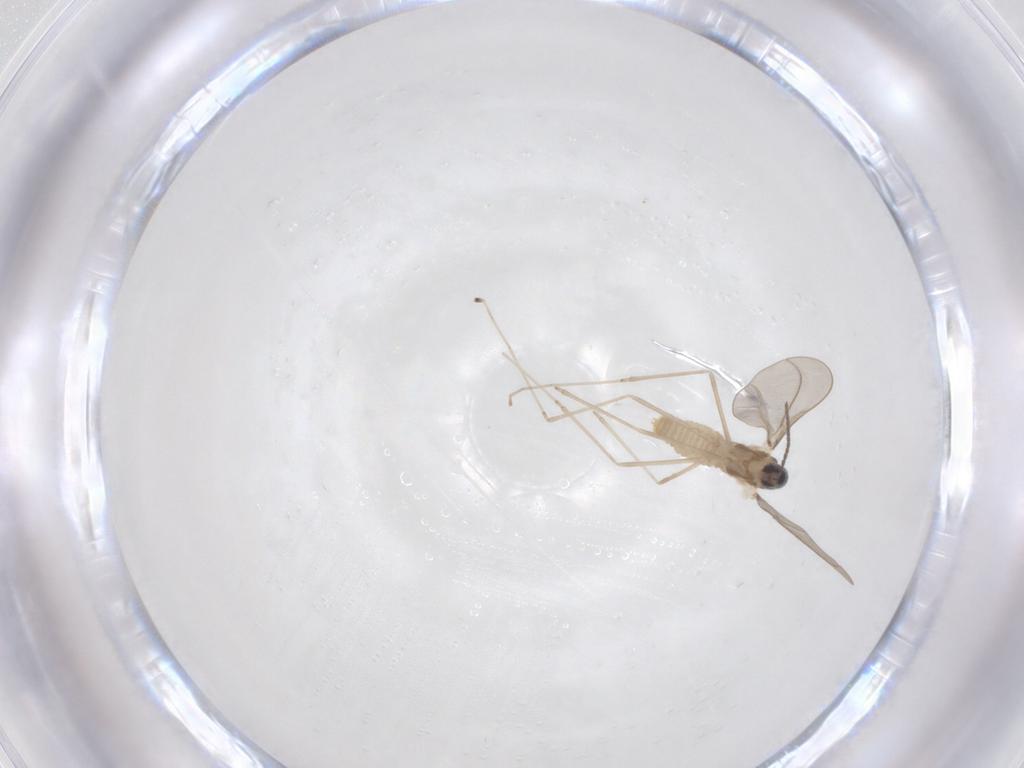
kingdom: Animalia
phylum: Arthropoda
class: Insecta
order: Diptera
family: Cecidomyiidae
